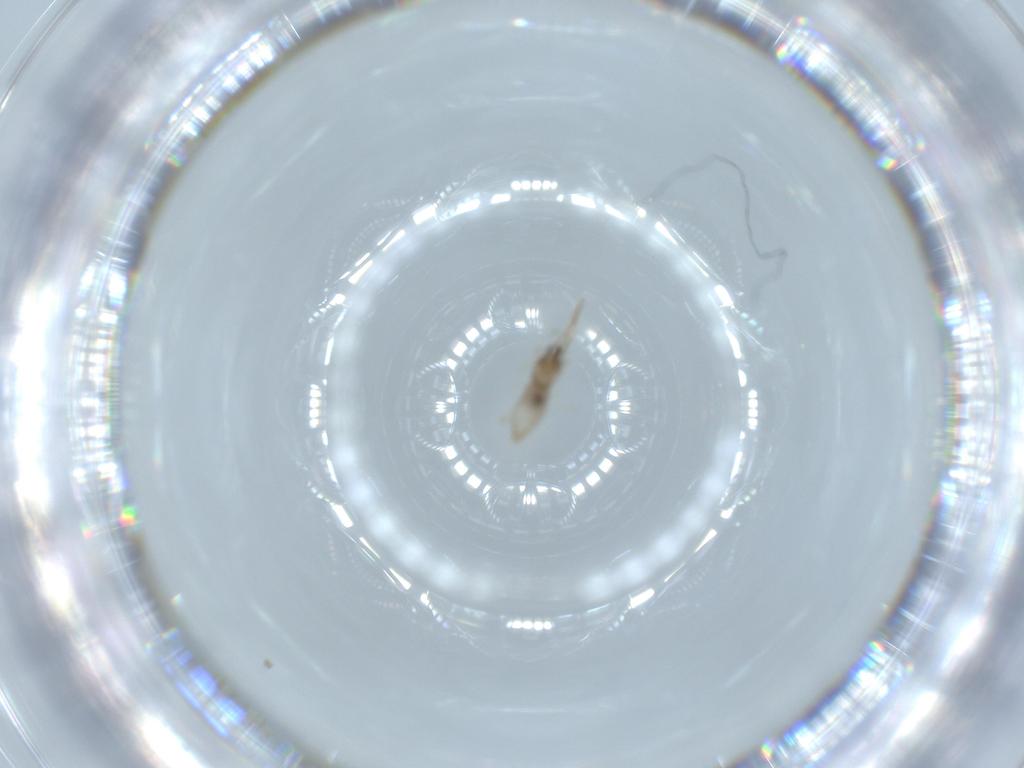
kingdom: Animalia
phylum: Arthropoda
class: Insecta
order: Diptera
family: Cecidomyiidae
